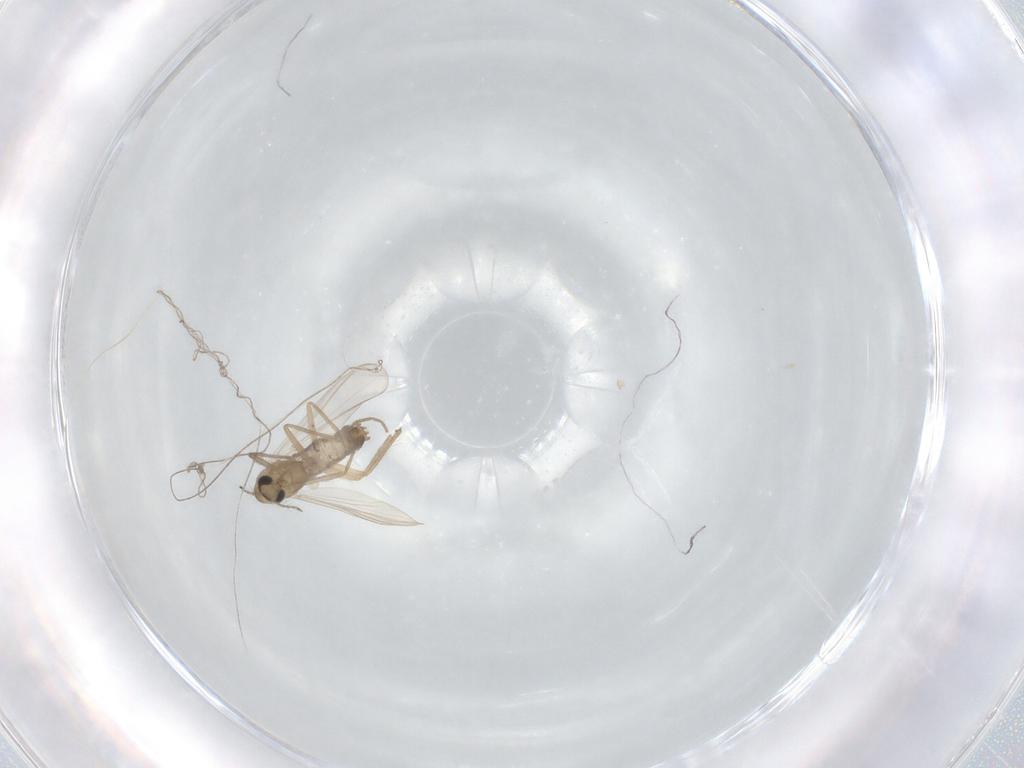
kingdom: Animalia
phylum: Arthropoda
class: Insecta
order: Diptera
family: Chironomidae
